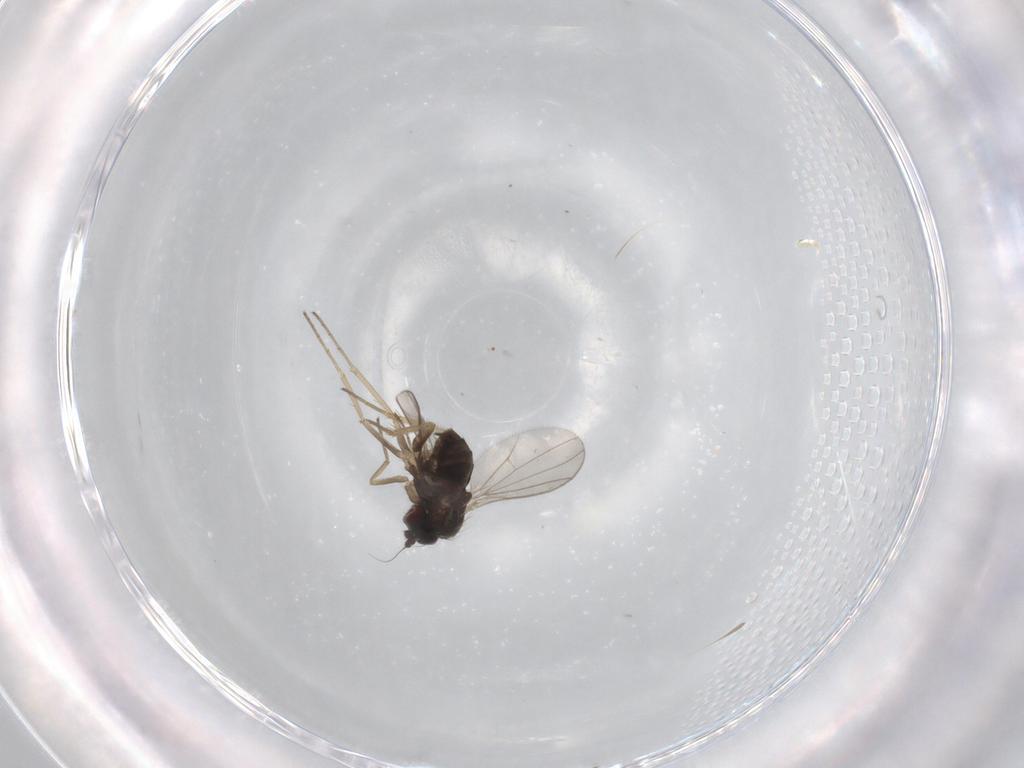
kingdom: Animalia
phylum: Arthropoda
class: Insecta
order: Diptera
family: Dolichopodidae
